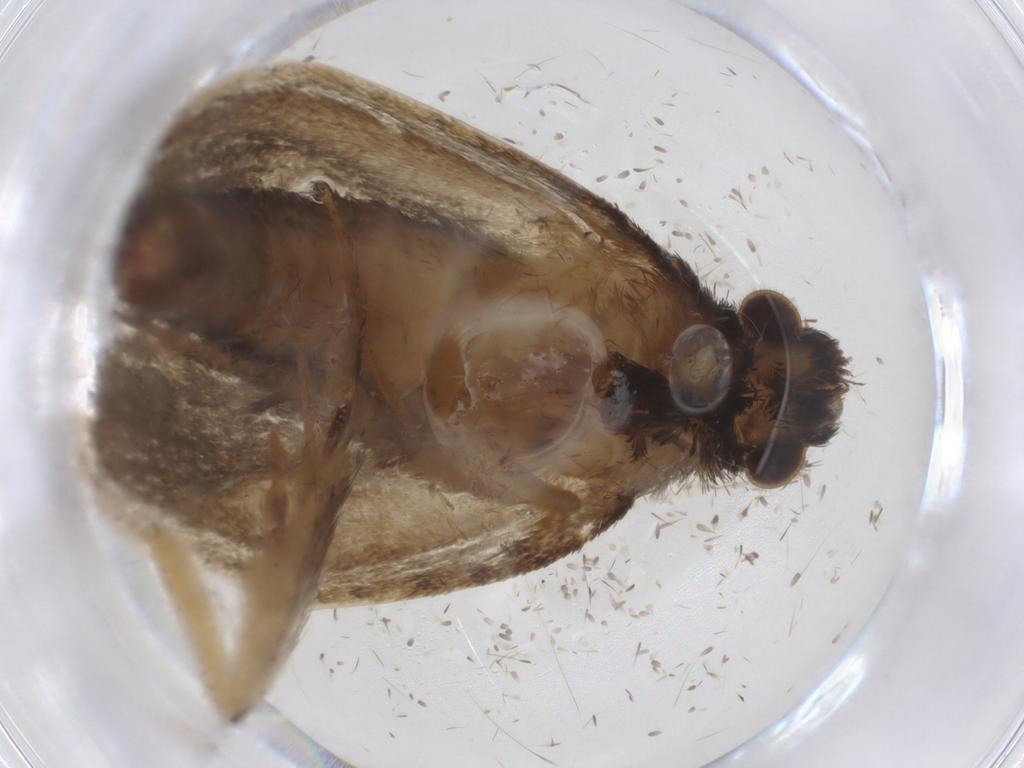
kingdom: Animalia
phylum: Arthropoda
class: Insecta
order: Lepidoptera
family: Tineidae
